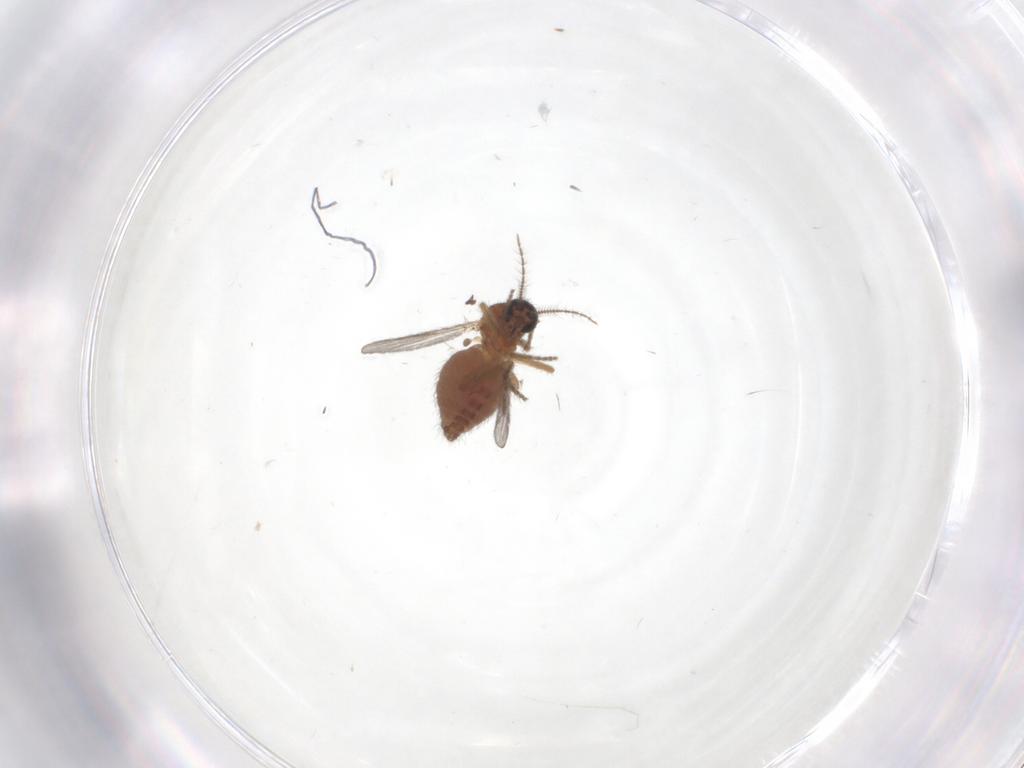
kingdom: Animalia
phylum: Arthropoda
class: Insecta
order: Diptera
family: Ceratopogonidae
